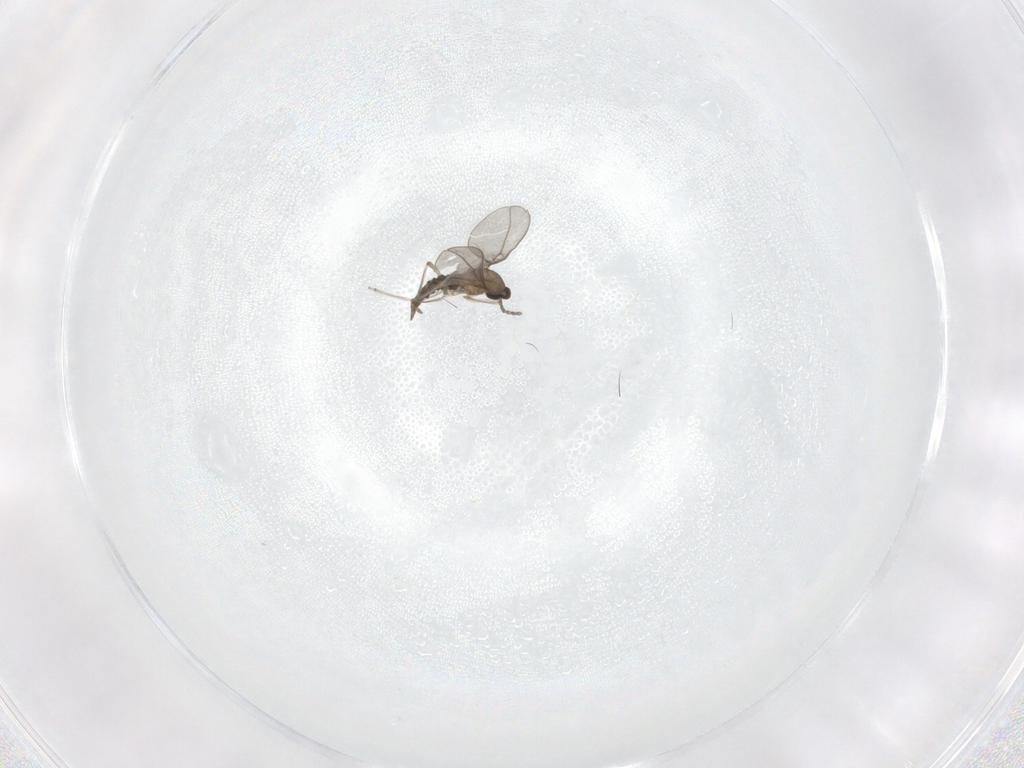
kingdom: Animalia
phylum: Arthropoda
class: Insecta
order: Diptera
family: Cecidomyiidae
